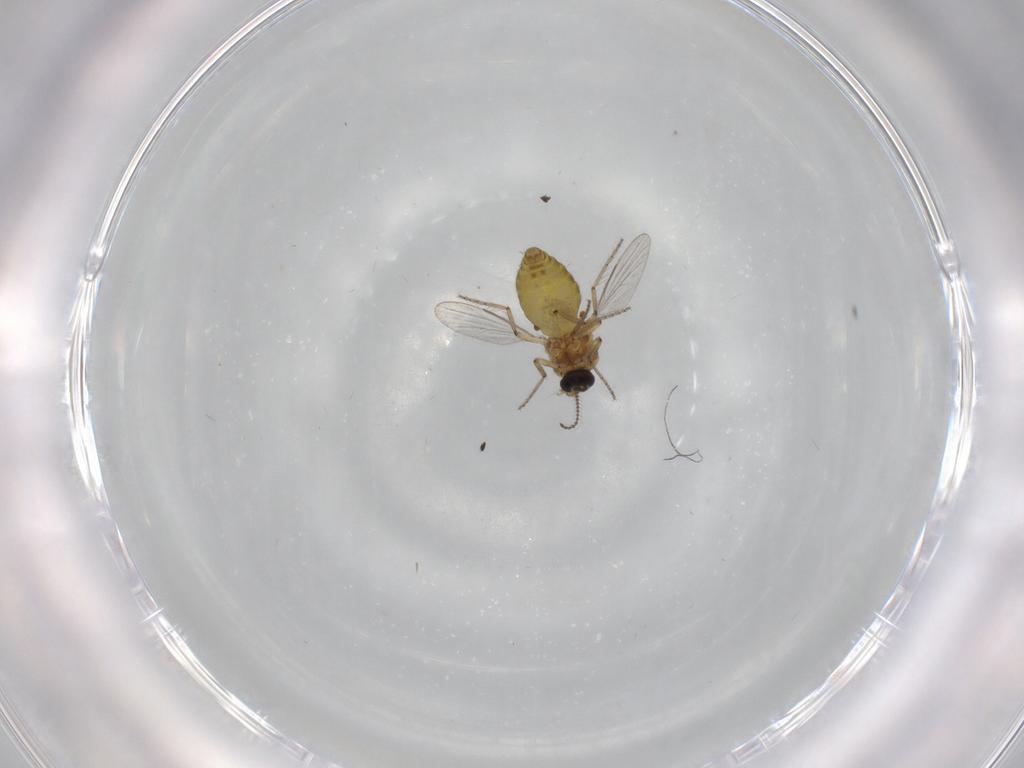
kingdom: Animalia
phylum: Arthropoda
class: Insecta
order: Diptera
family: Ceratopogonidae
